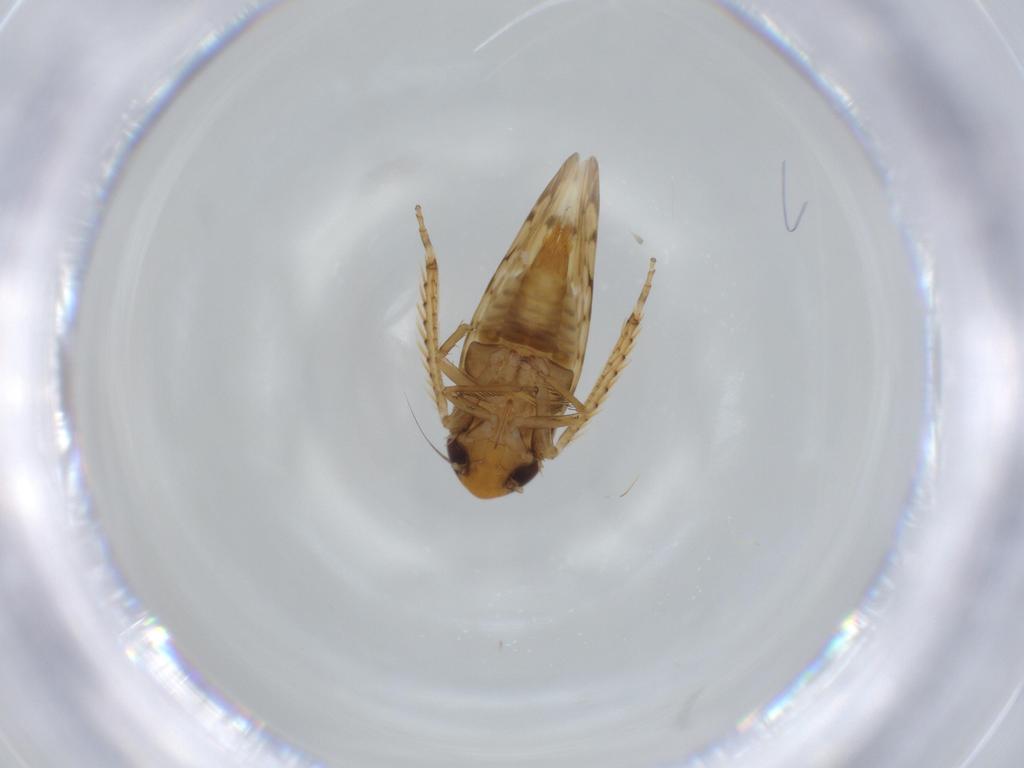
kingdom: Animalia
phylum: Arthropoda
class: Insecta
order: Hemiptera
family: Cicadellidae
